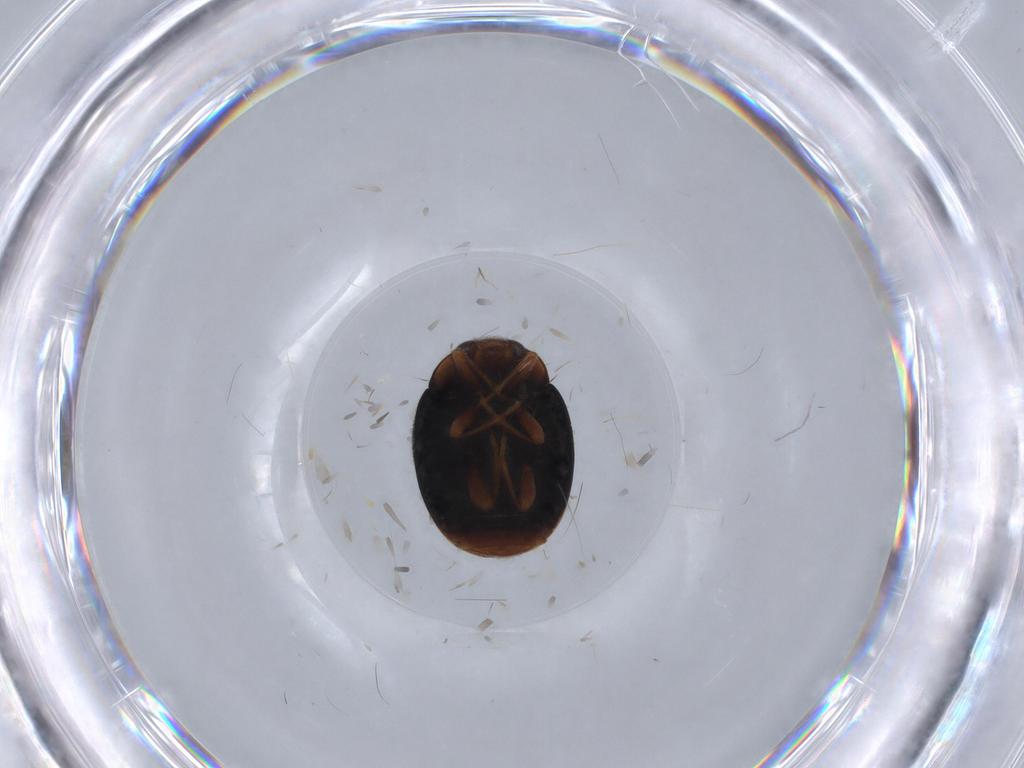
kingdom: Animalia
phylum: Arthropoda
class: Insecta
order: Coleoptera
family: Coccinellidae
